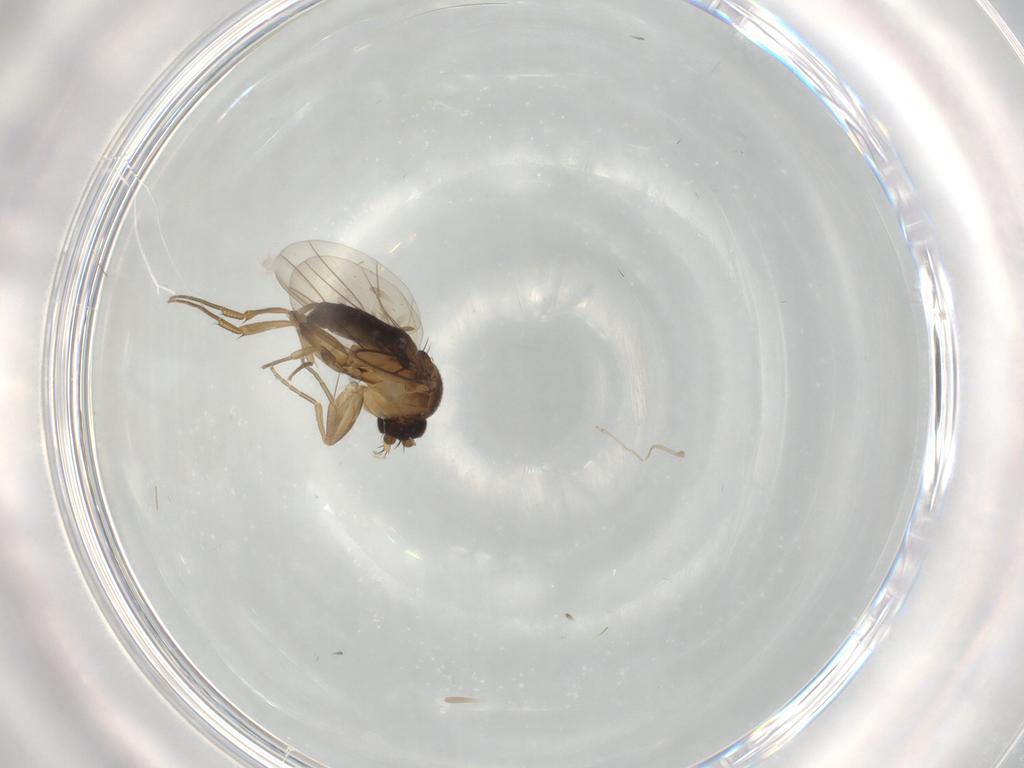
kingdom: Animalia
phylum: Arthropoda
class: Insecta
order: Diptera
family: Phoridae
